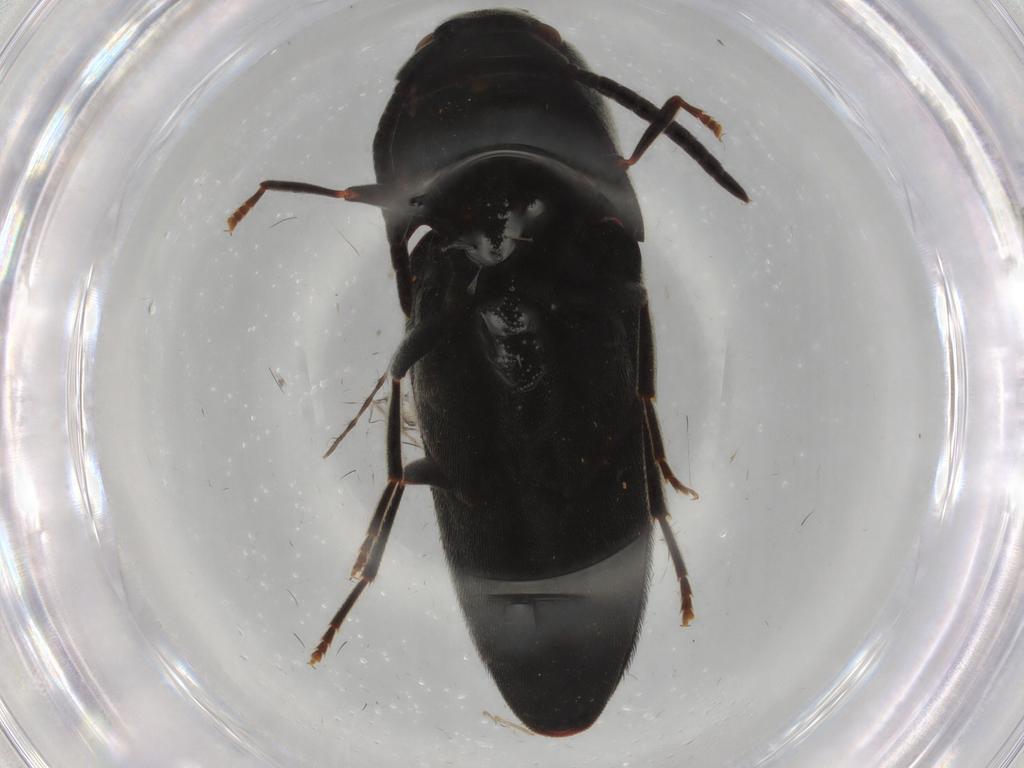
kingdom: Animalia
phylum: Arthropoda
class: Insecta
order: Coleoptera
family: Eucnemidae
